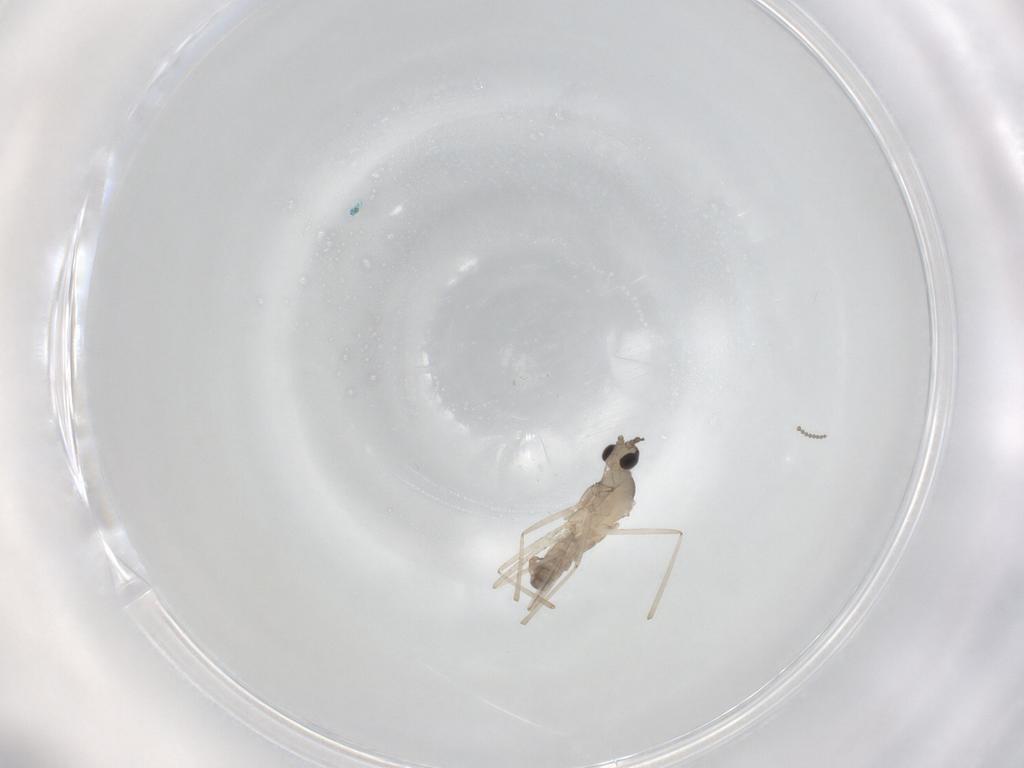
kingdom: Animalia
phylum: Arthropoda
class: Insecta
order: Diptera
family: Cecidomyiidae
